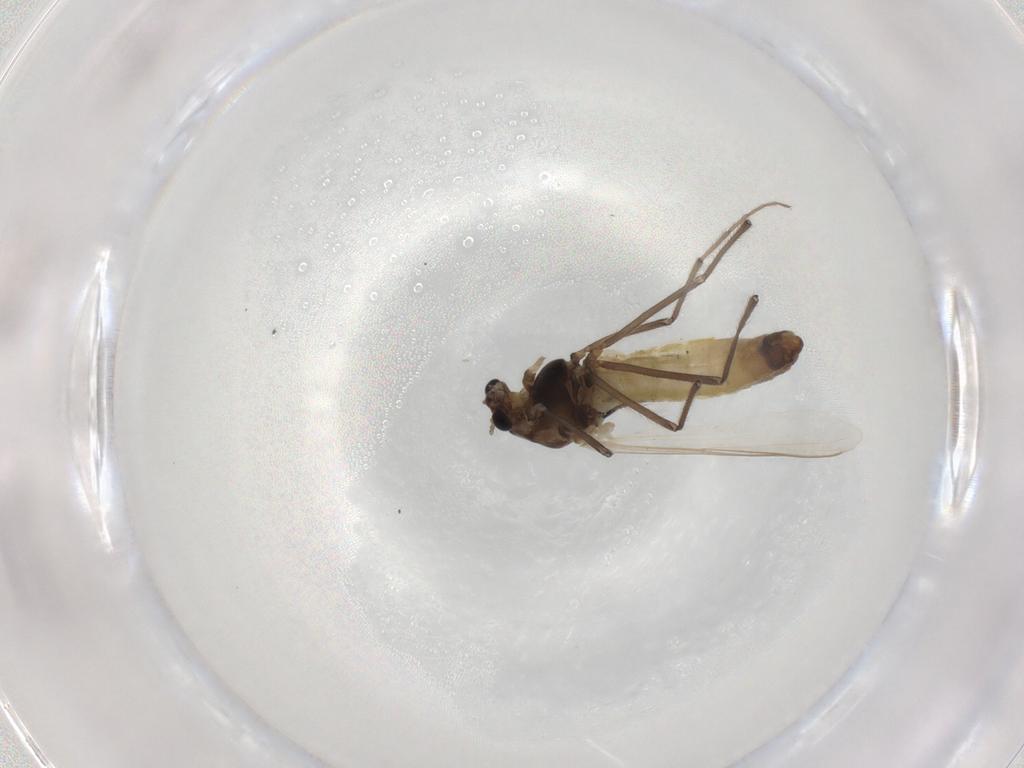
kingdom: Animalia
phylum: Arthropoda
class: Insecta
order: Diptera
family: Chironomidae
